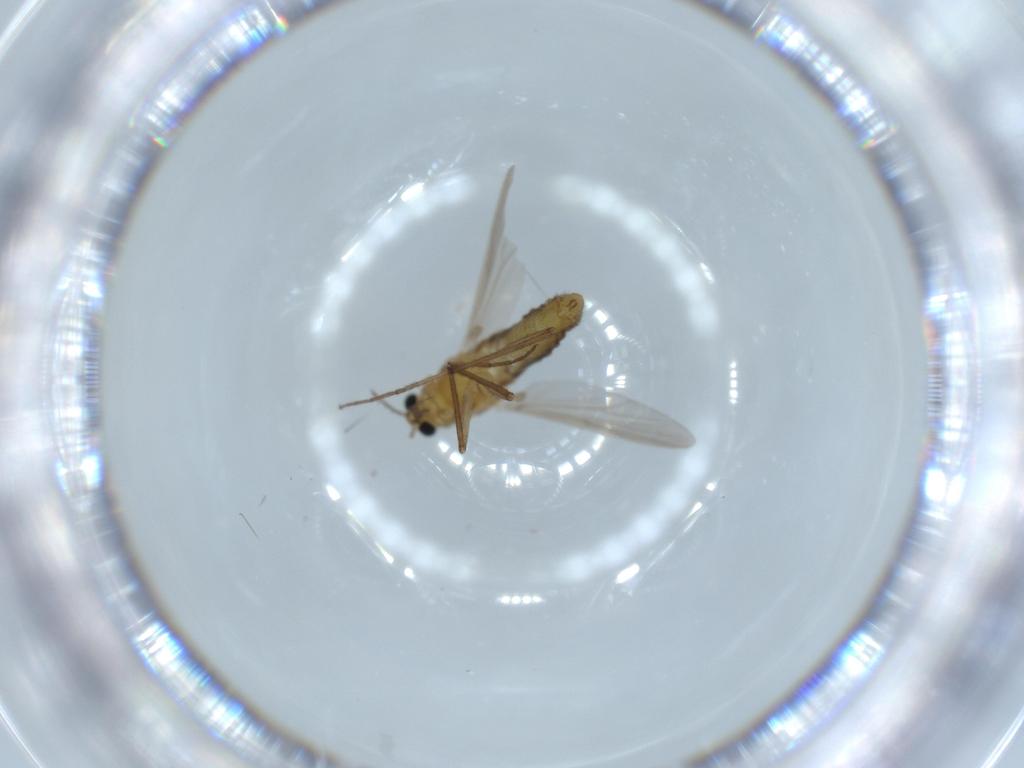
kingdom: Animalia
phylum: Arthropoda
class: Insecta
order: Diptera
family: Chironomidae
